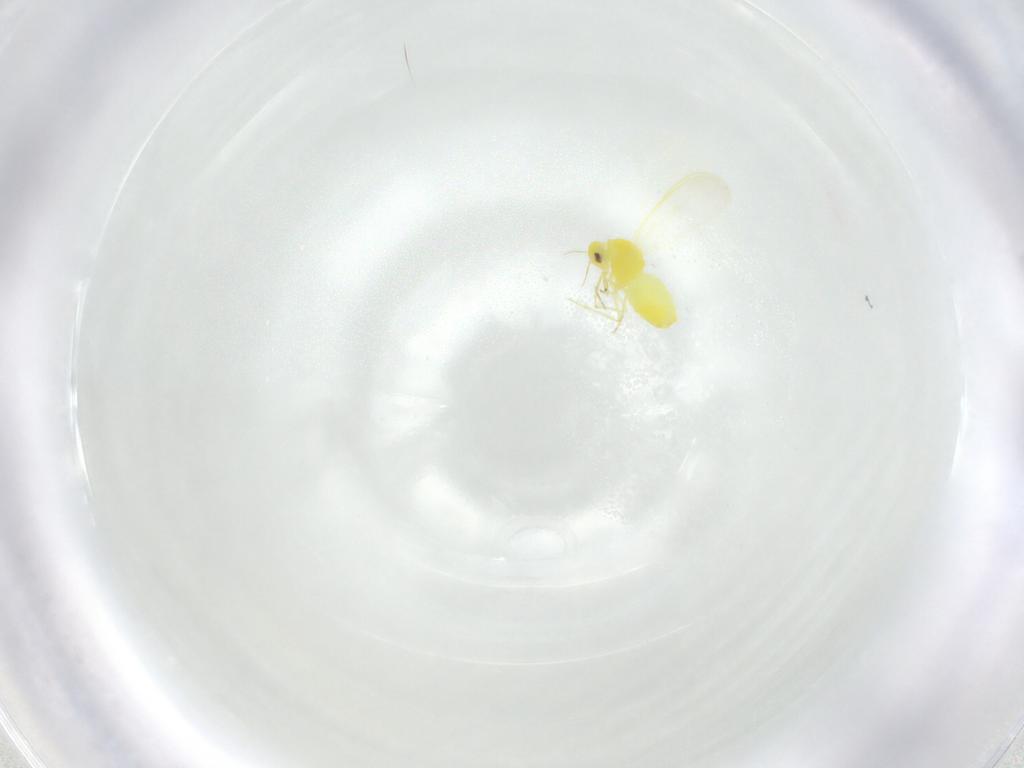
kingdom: Animalia
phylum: Arthropoda
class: Insecta
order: Hemiptera
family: Aleyrodidae
